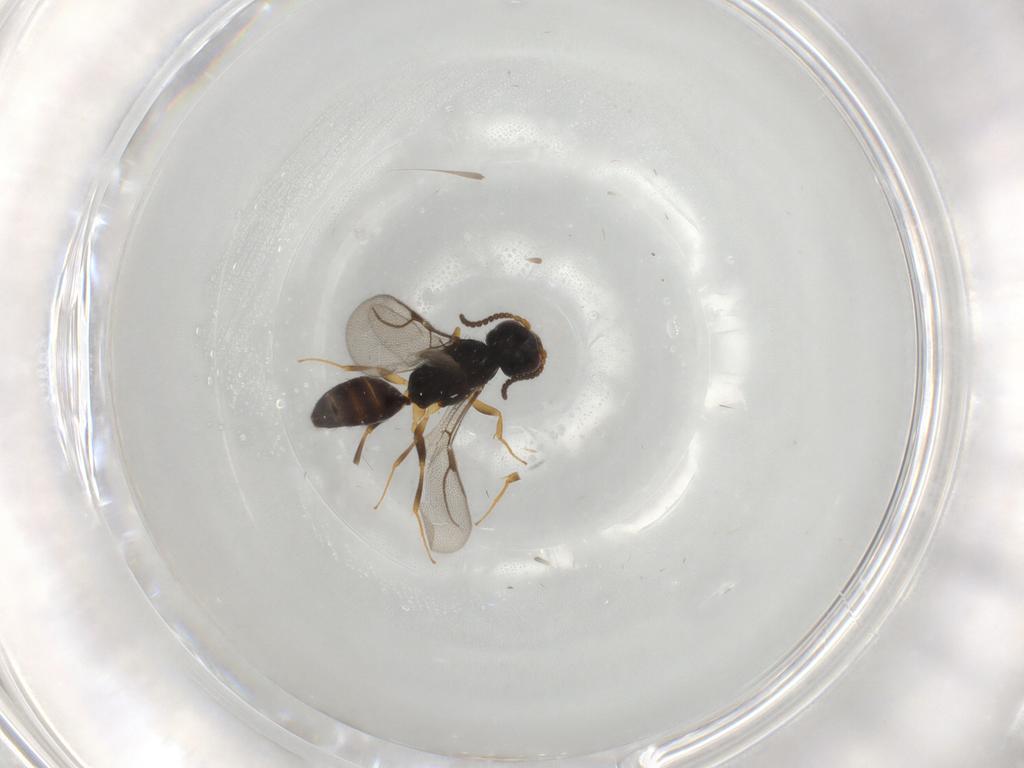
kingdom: Animalia
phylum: Arthropoda
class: Insecta
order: Hymenoptera
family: Bethylidae
